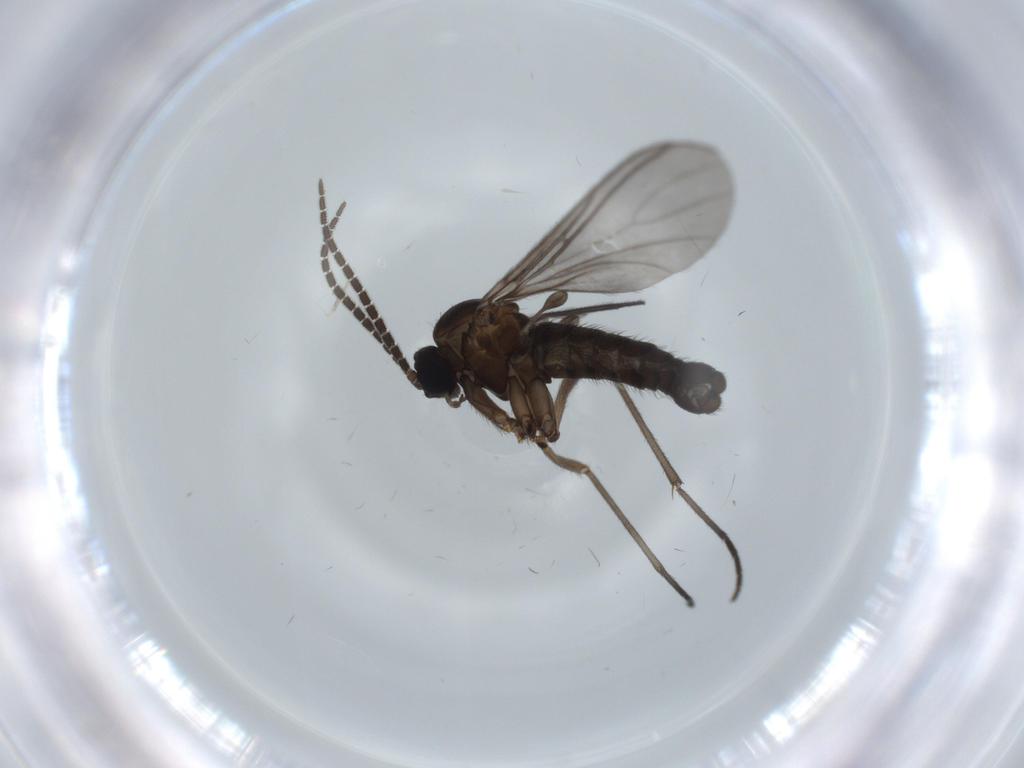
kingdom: Animalia
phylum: Arthropoda
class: Insecta
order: Diptera
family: Sciaridae
